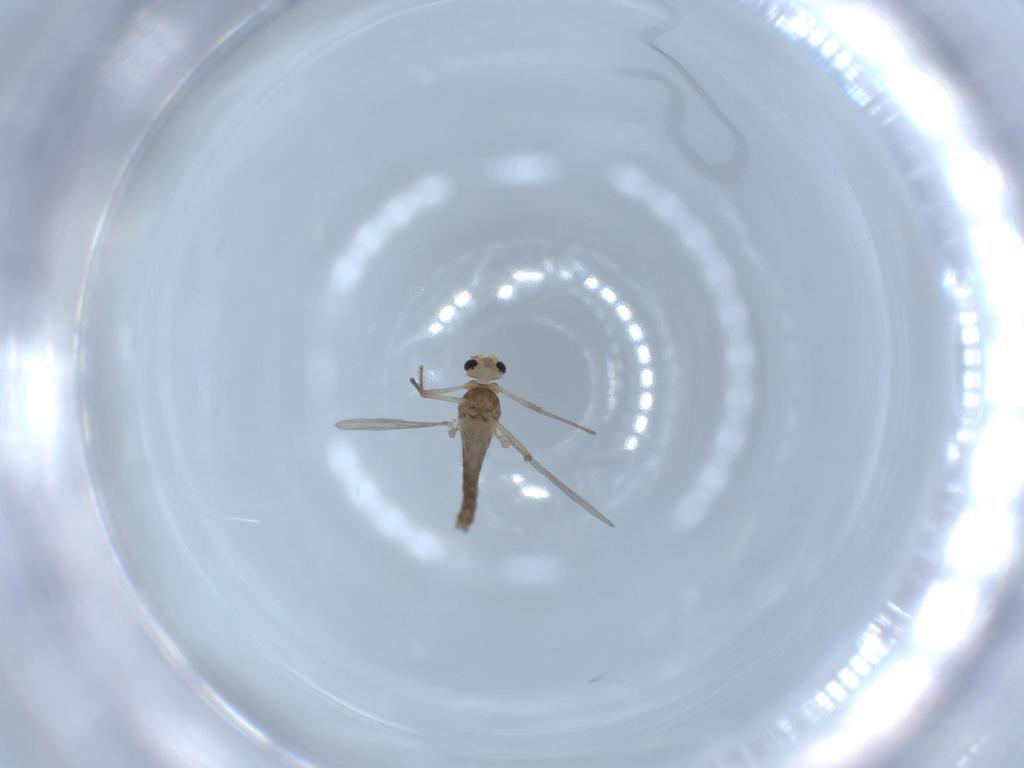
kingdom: Animalia
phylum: Arthropoda
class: Insecta
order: Diptera
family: Chironomidae
